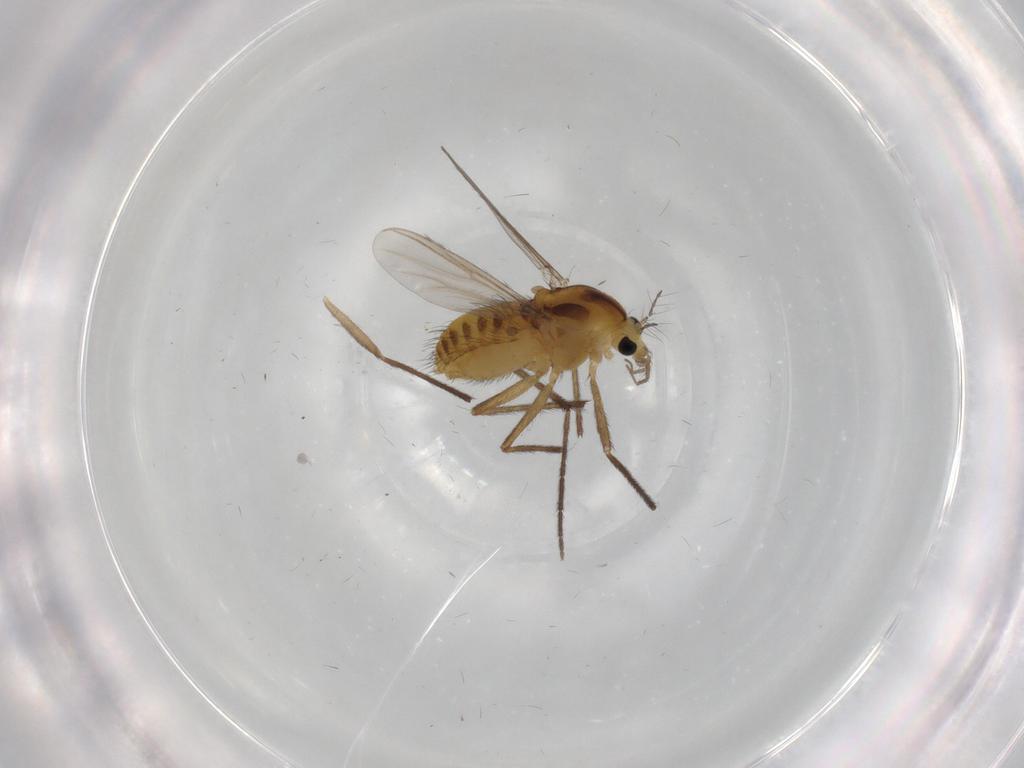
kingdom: Animalia
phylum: Arthropoda
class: Insecta
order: Diptera
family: Chironomidae
